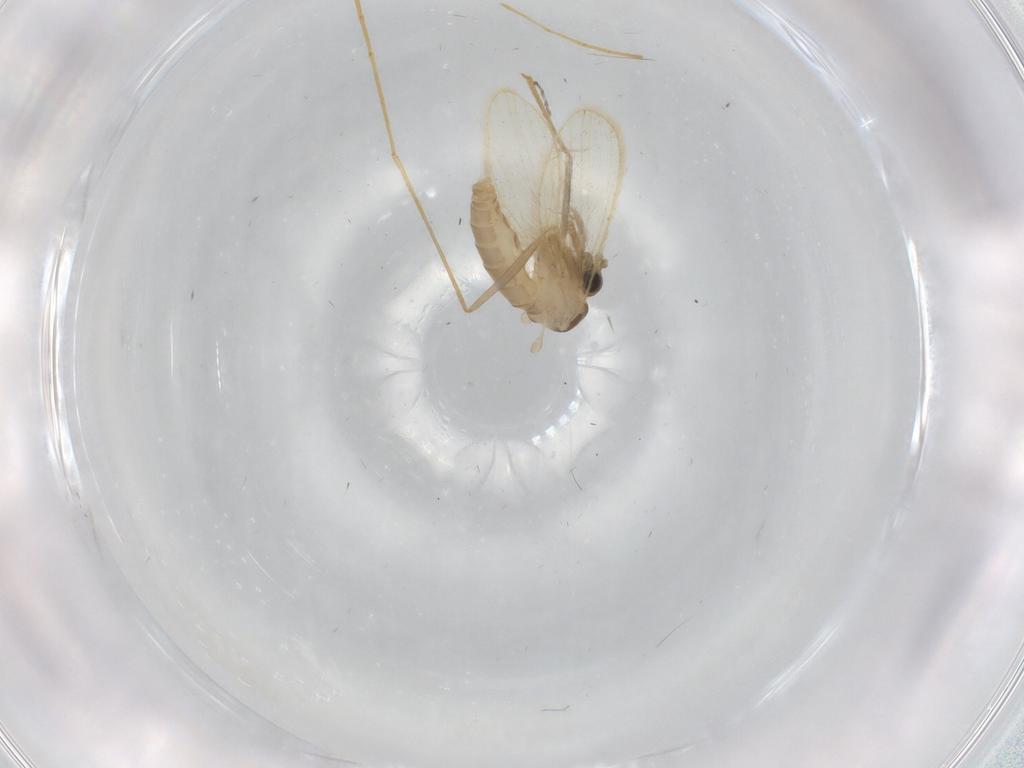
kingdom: Animalia
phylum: Arthropoda
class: Insecta
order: Diptera
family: Psychodidae
